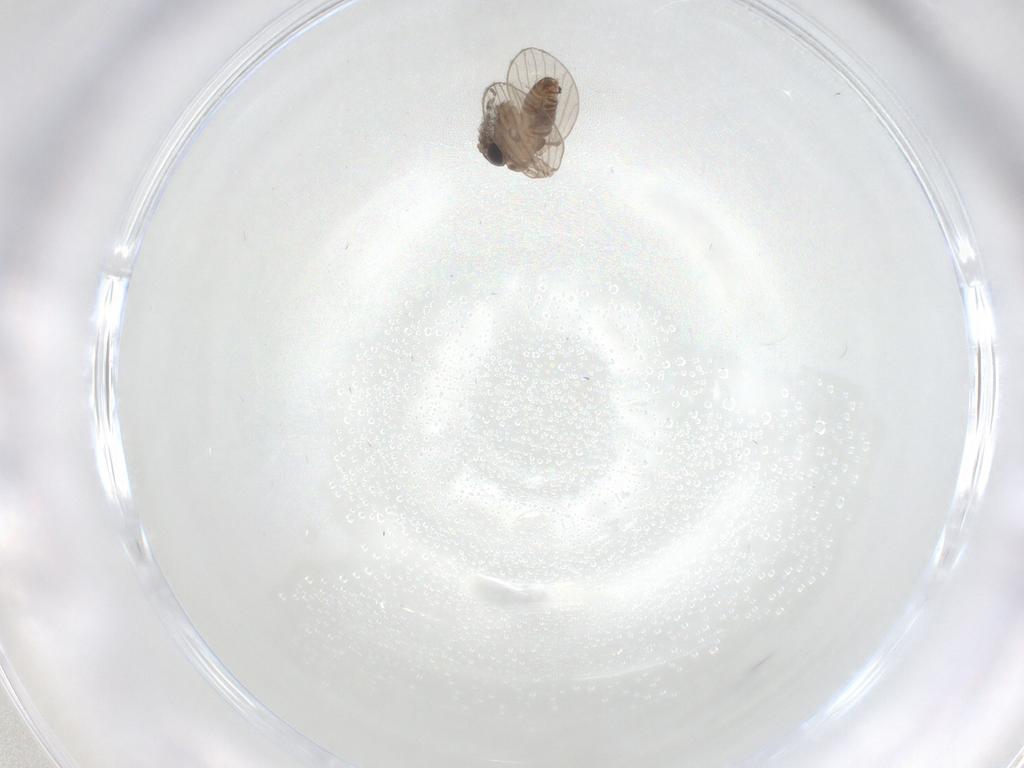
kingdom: Animalia
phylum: Arthropoda
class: Insecta
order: Diptera
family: Psychodidae
